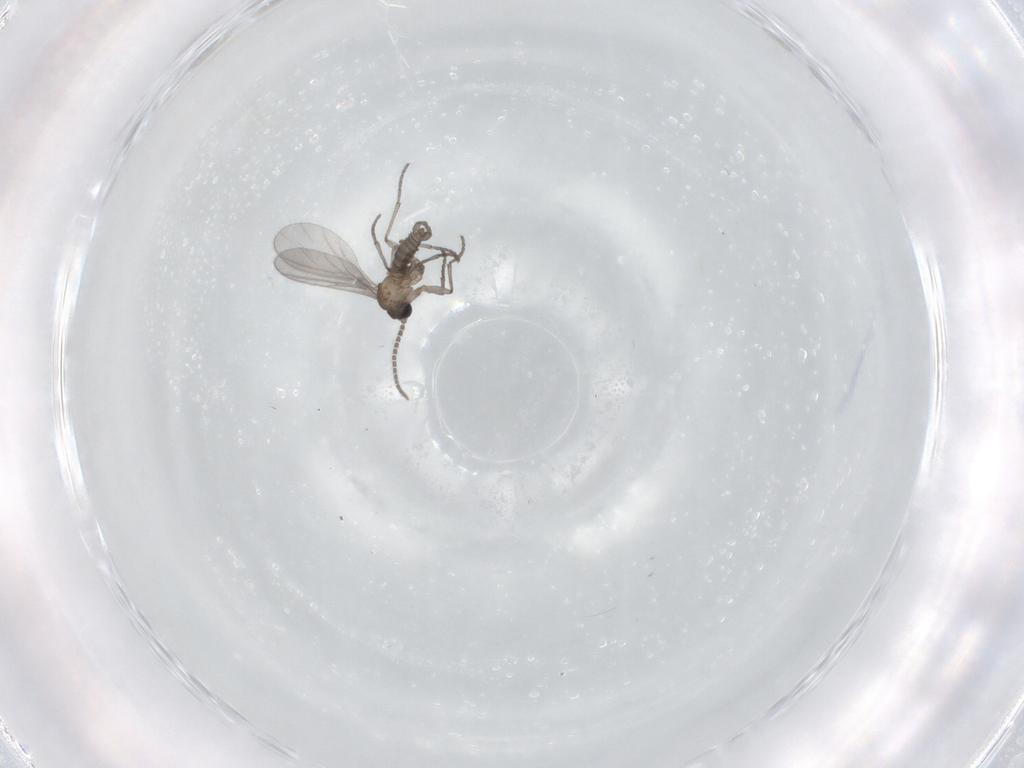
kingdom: Animalia
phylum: Arthropoda
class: Insecta
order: Diptera
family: Sciaridae
